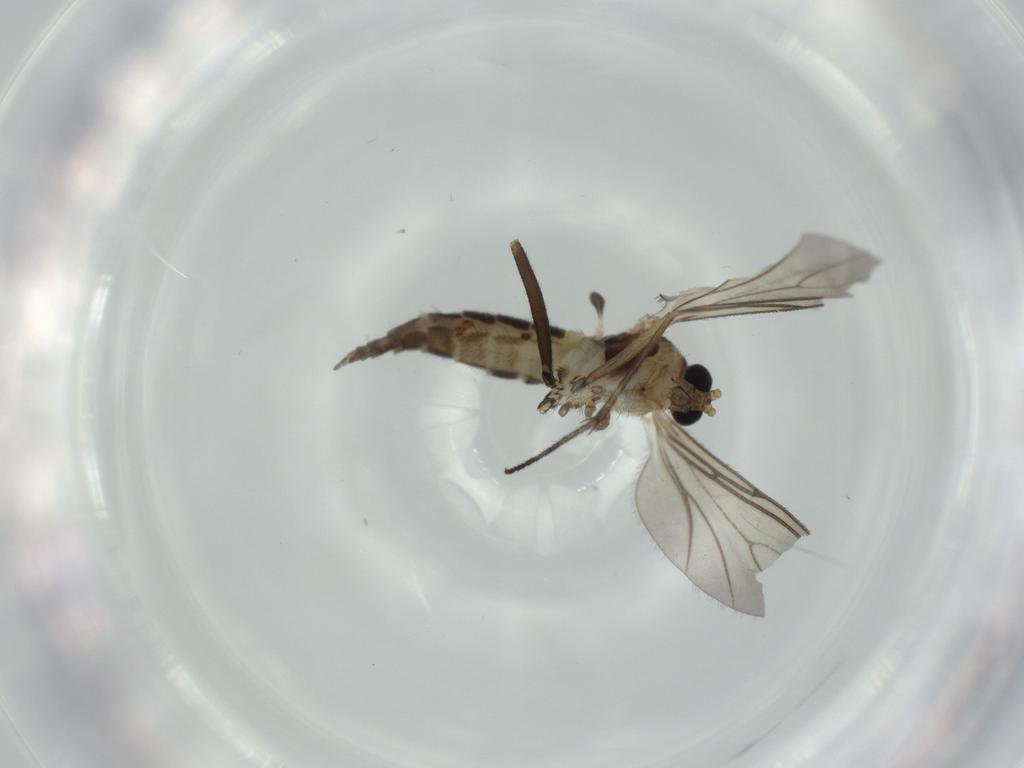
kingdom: Animalia
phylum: Arthropoda
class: Insecta
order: Diptera
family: Sciaridae
